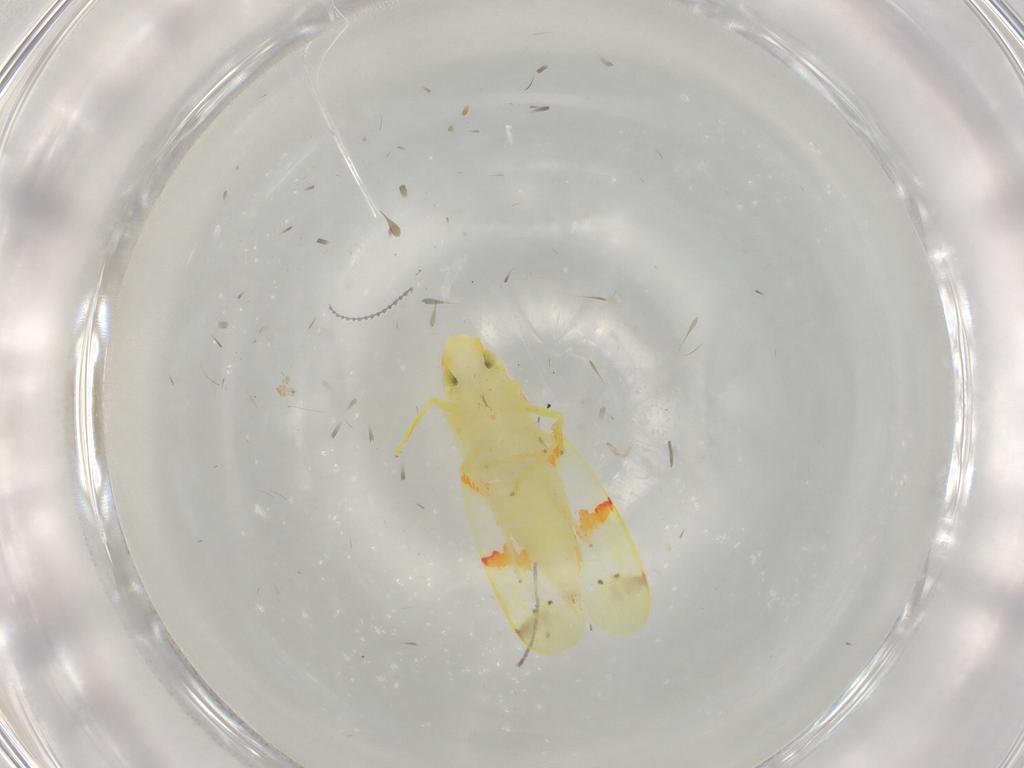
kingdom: Animalia
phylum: Arthropoda
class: Insecta
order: Hemiptera
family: Cicadellidae
